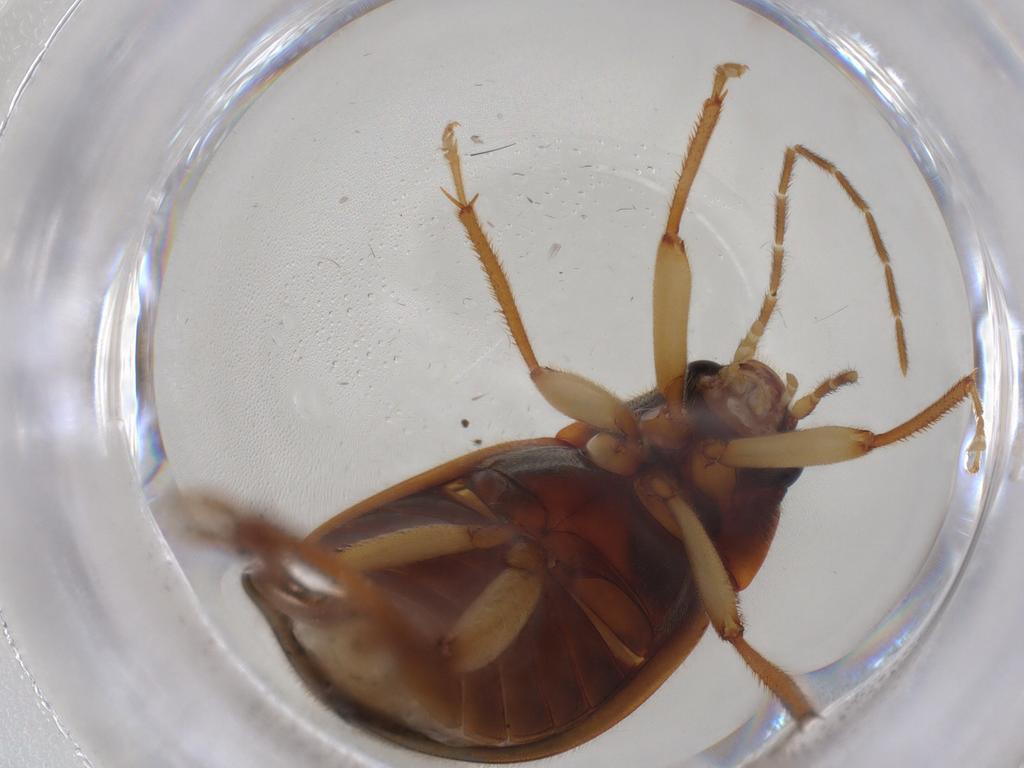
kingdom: Animalia
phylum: Arthropoda
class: Insecta
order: Coleoptera
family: Ptilodactylidae
